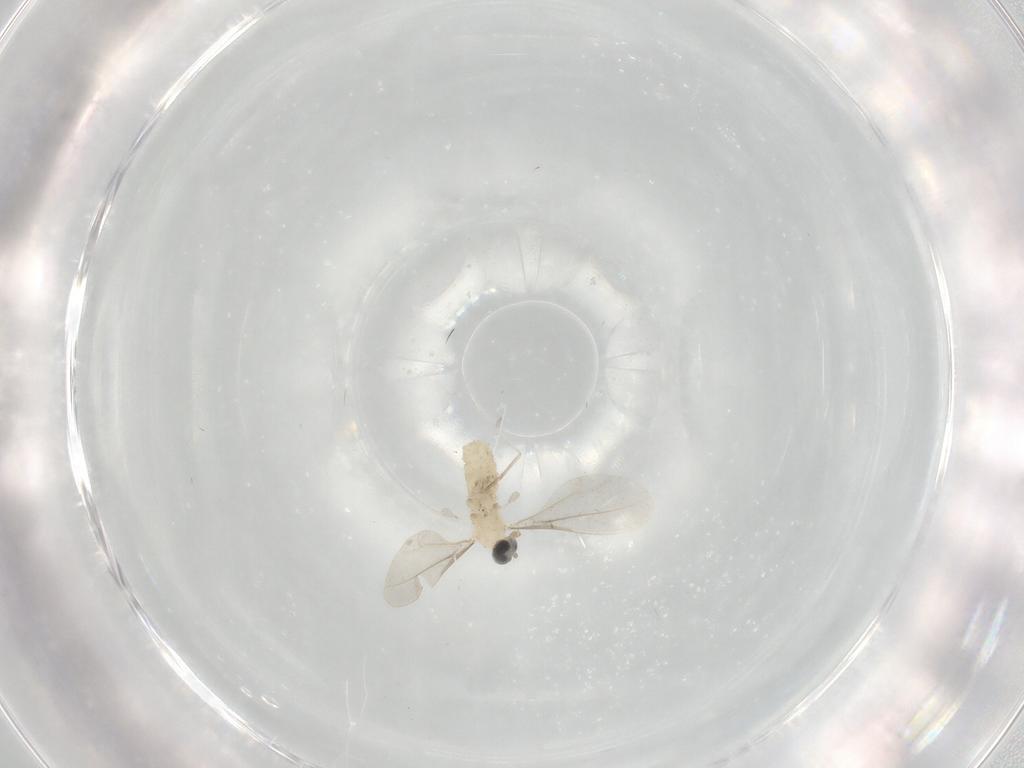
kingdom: Animalia
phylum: Arthropoda
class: Insecta
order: Diptera
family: Cecidomyiidae
